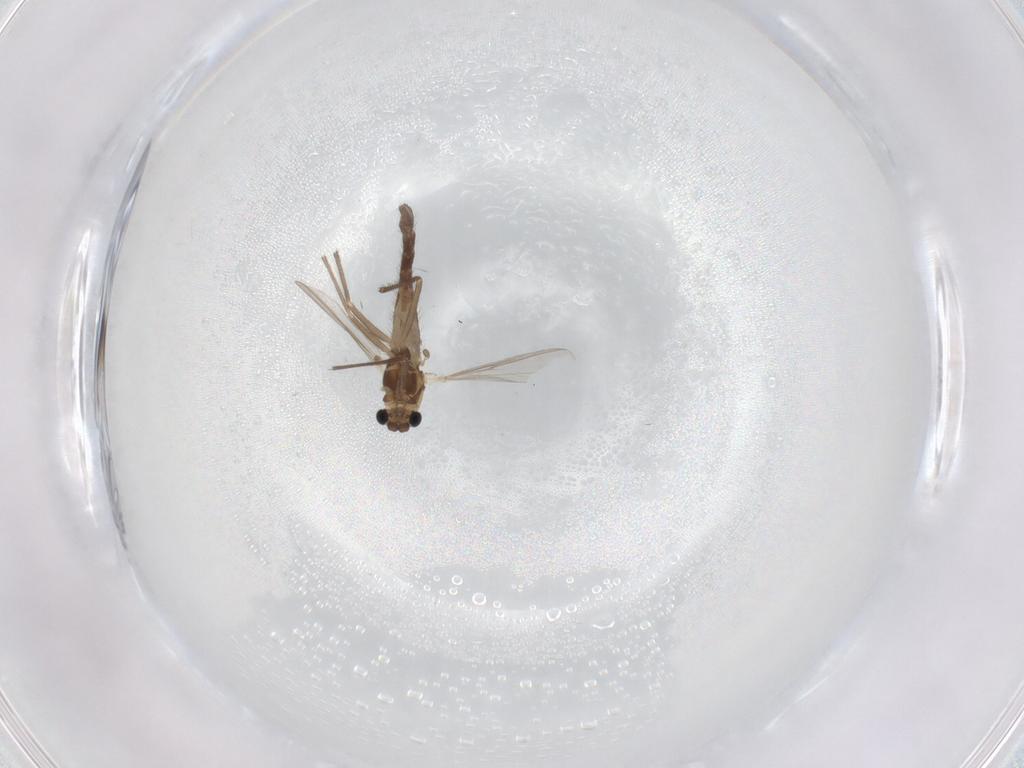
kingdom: Animalia
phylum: Arthropoda
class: Insecta
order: Diptera
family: Chironomidae
